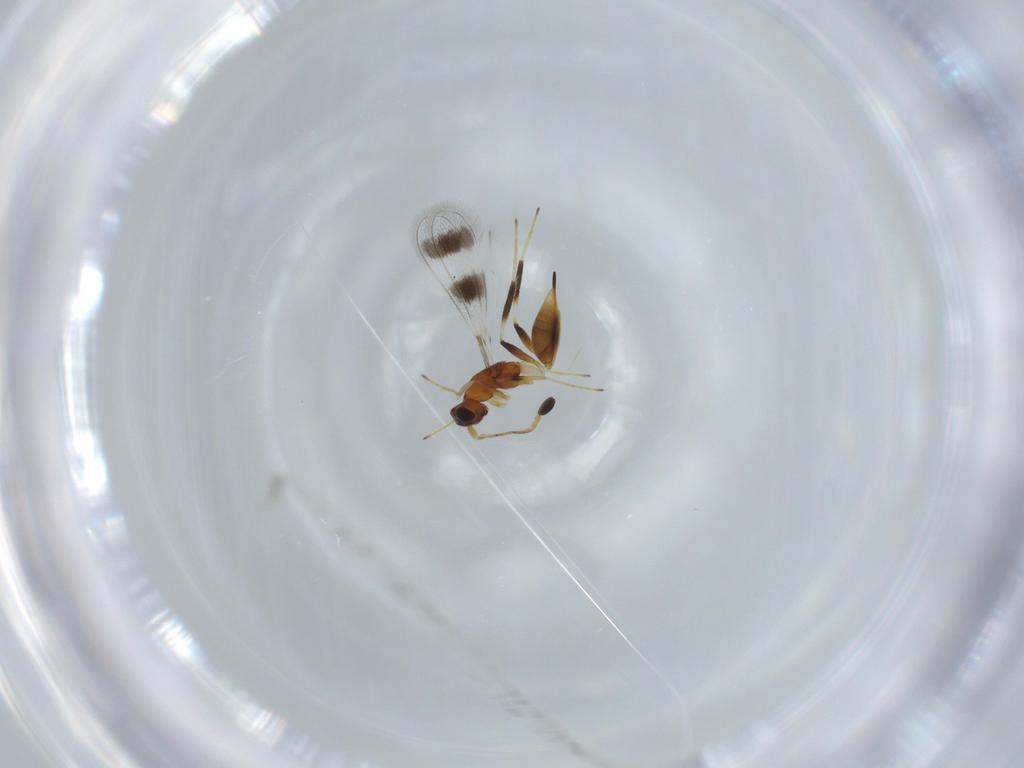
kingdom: Animalia
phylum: Arthropoda
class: Insecta
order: Hymenoptera
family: Mymaridae
